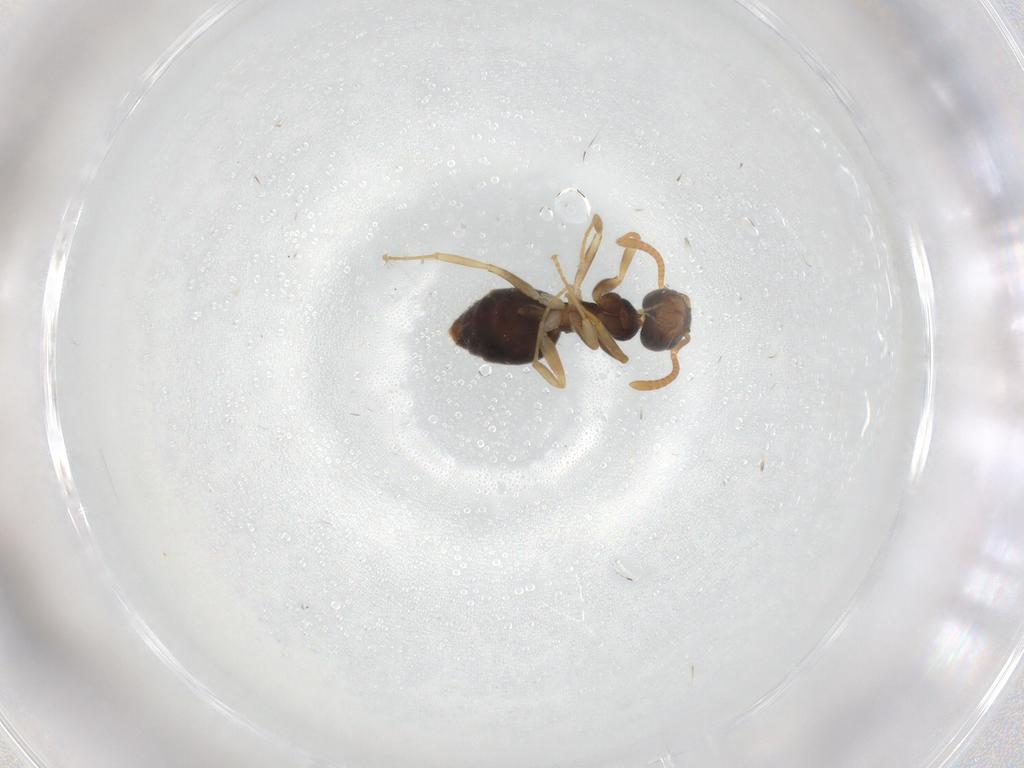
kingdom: Animalia
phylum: Arthropoda
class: Insecta
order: Hymenoptera
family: Formicidae
